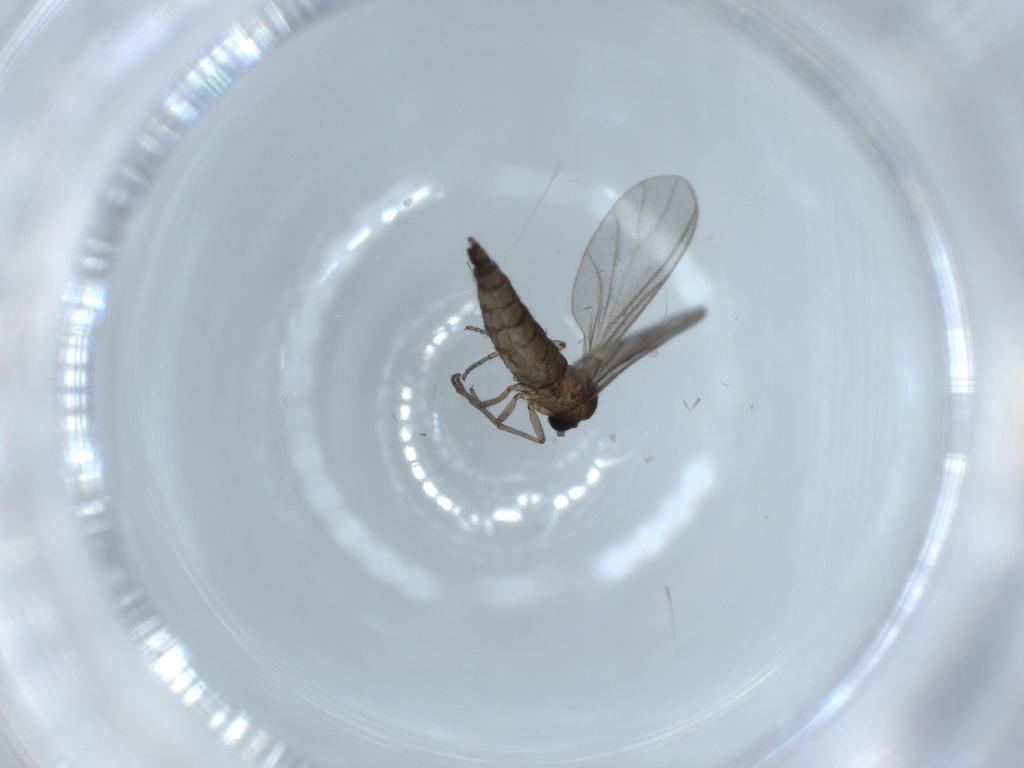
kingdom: Animalia
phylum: Arthropoda
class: Insecta
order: Diptera
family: Sciaridae
